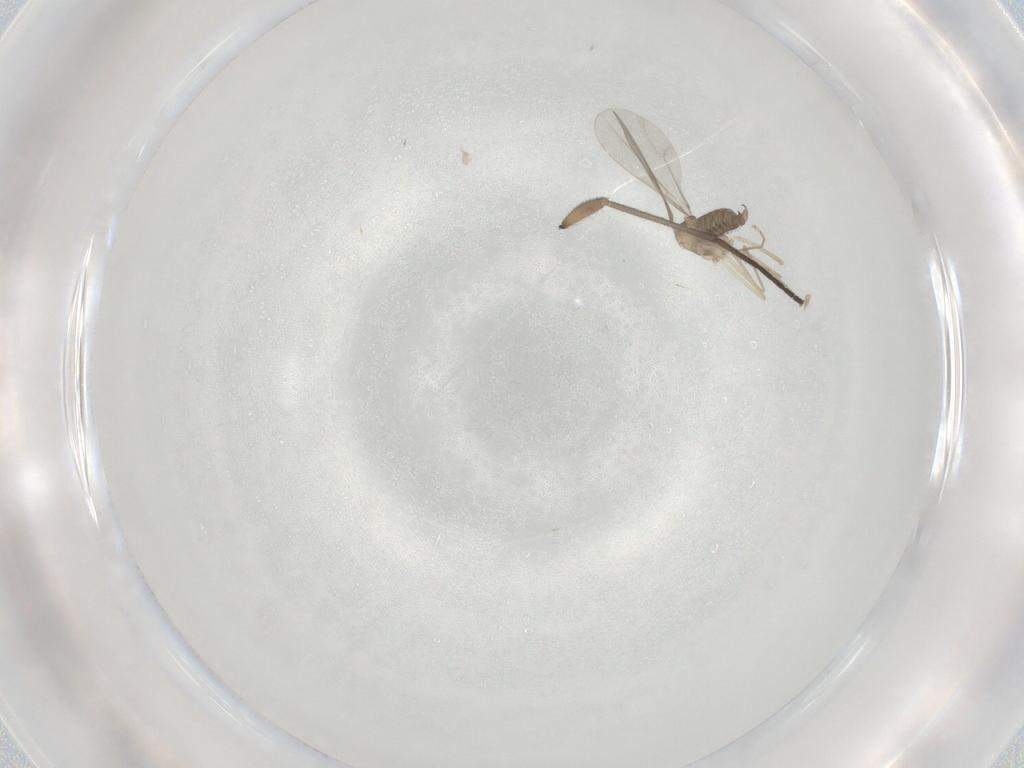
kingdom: Animalia
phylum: Arthropoda
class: Insecta
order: Diptera
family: Cecidomyiidae
